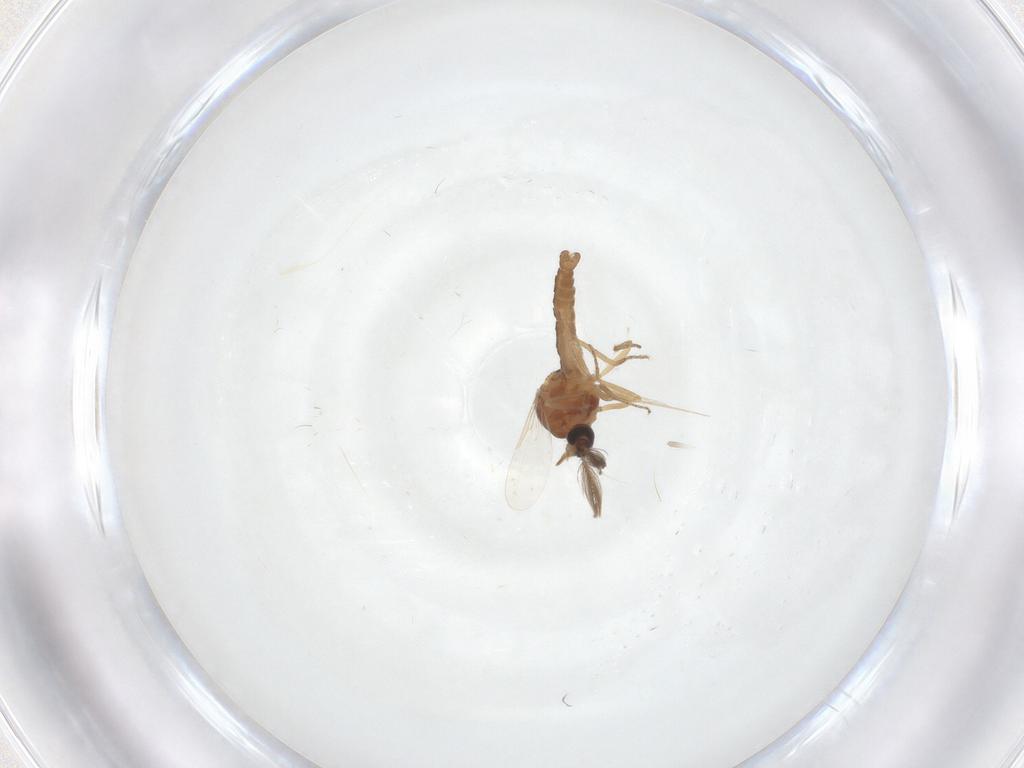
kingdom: Animalia
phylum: Arthropoda
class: Insecta
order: Diptera
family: Ceratopogonidae
